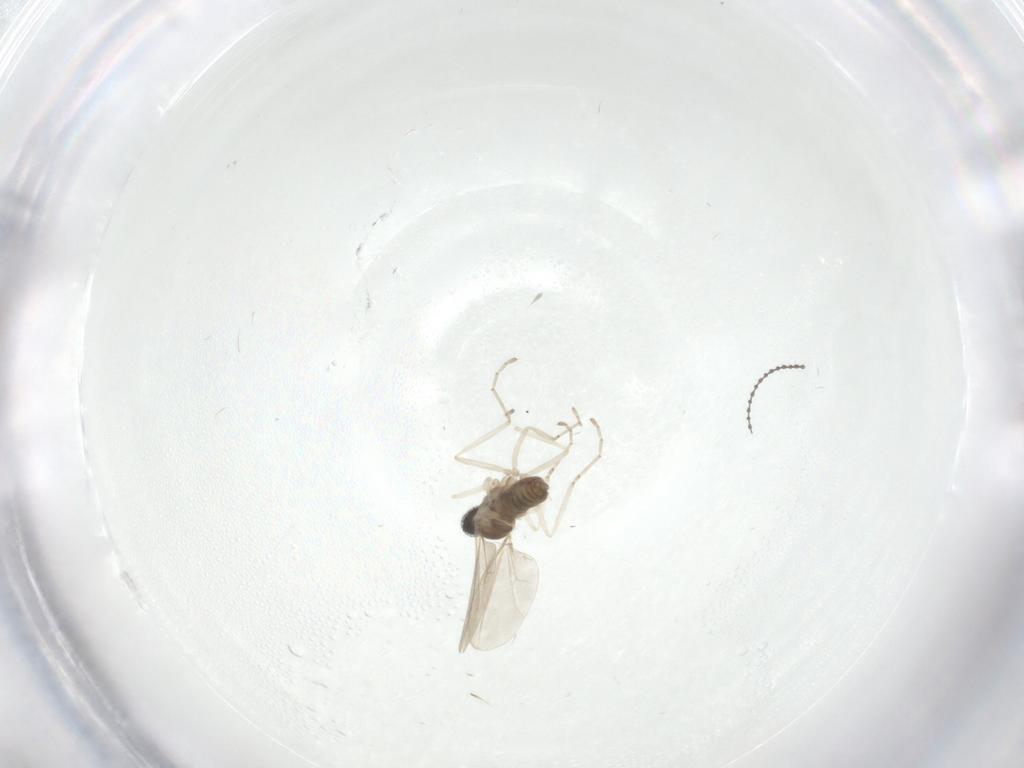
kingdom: Animalia
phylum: Arthropoda
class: Insecta
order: Diptera
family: Cecidomyiidae
